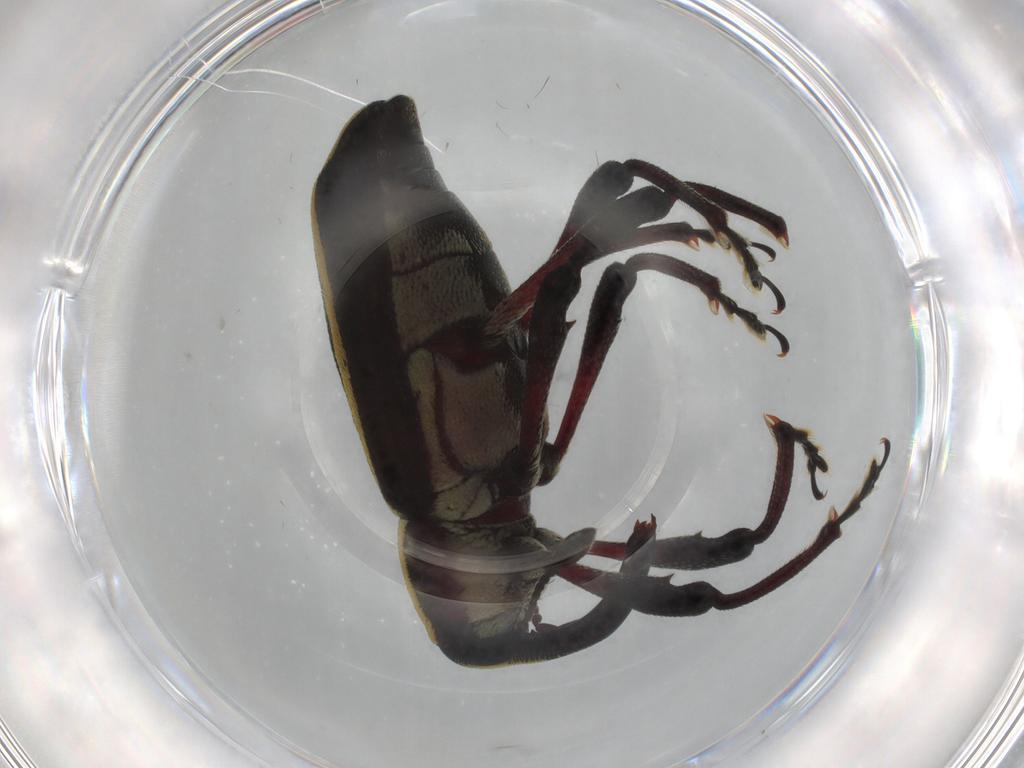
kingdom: Animalia
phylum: Arthropoda
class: Insecta
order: Coleoptera
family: Curculionidae
